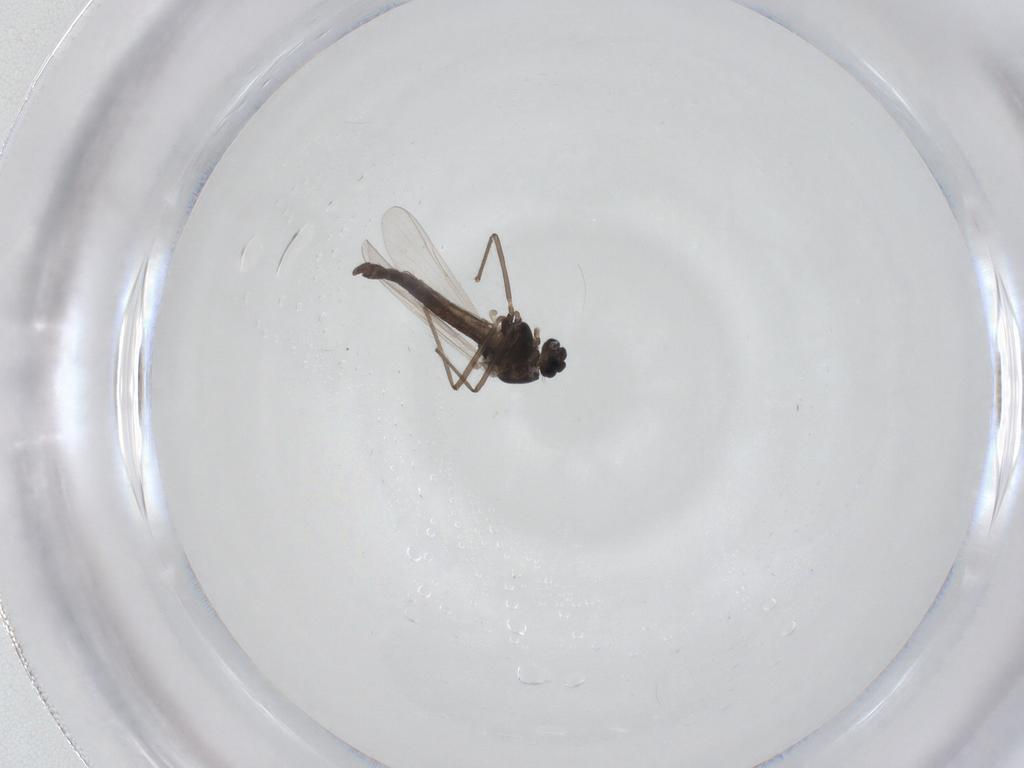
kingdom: Animalia
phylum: Arthropoda
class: Insecta
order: Diptera
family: Chironomidae
